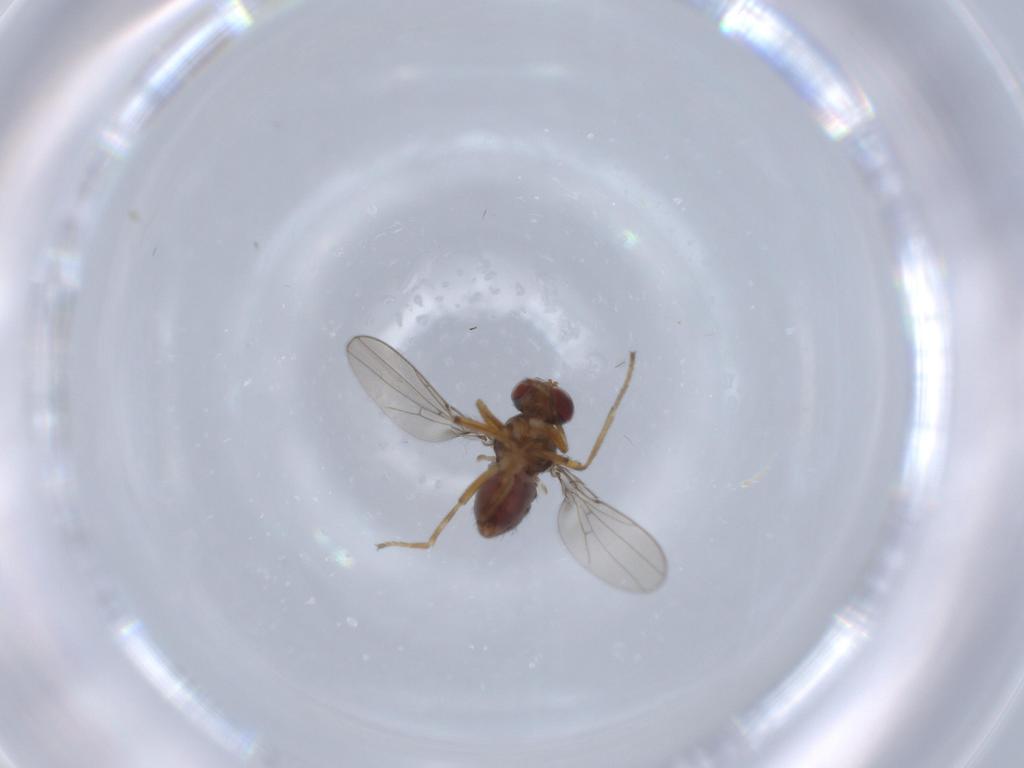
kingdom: Animalia
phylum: Arthropoda
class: Insecta
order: Diptera
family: Ephydridae
